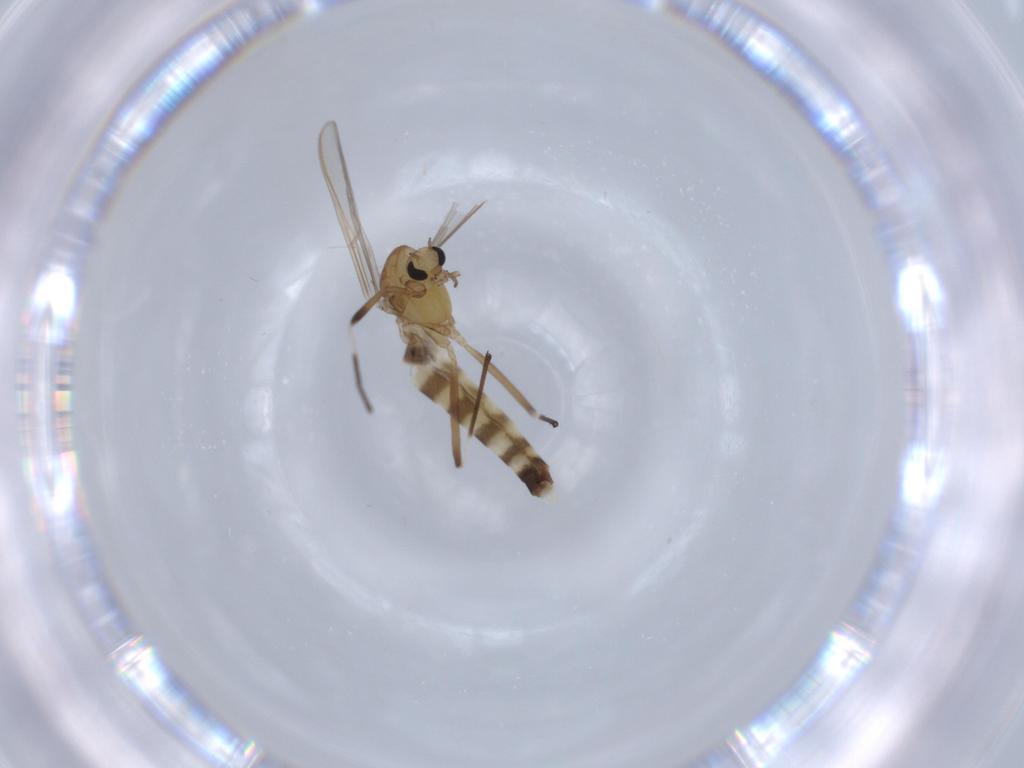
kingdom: Animalia
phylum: Arthropoda
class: Insecta
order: Diptera
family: Chironomidae
